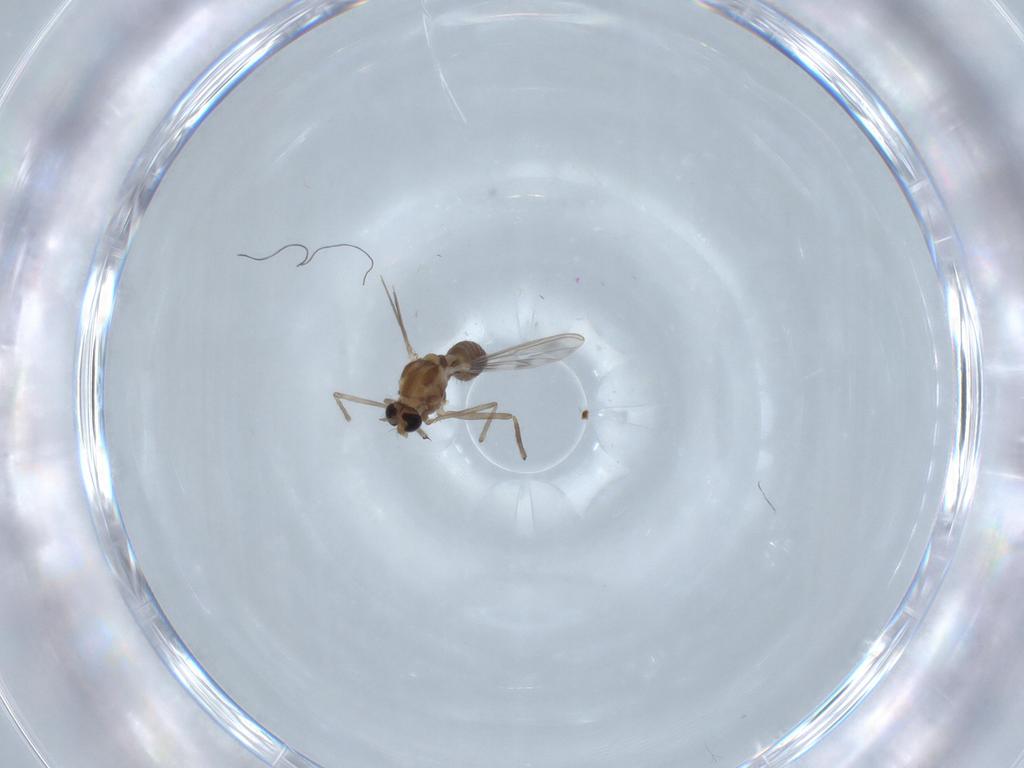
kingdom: Animalia
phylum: Arthropoda
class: Insecta
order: Diptera
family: Chironomidae
